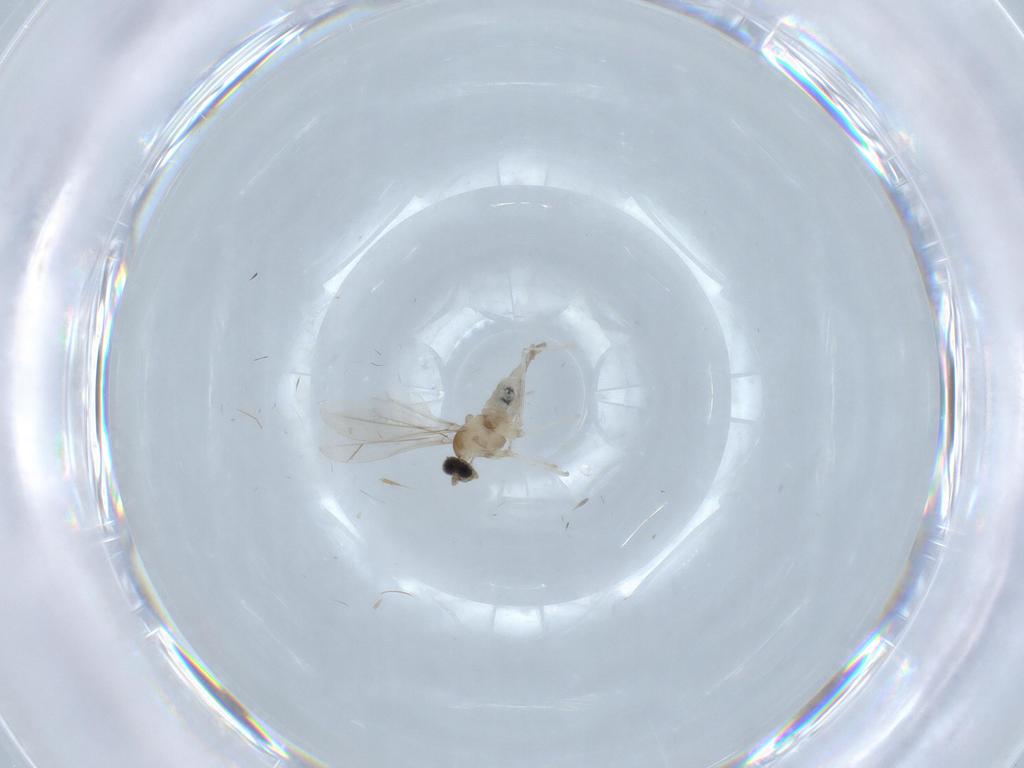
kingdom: Animalia
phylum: Arthropoda
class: Insecta
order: Diptera
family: Cecidomyiidae
